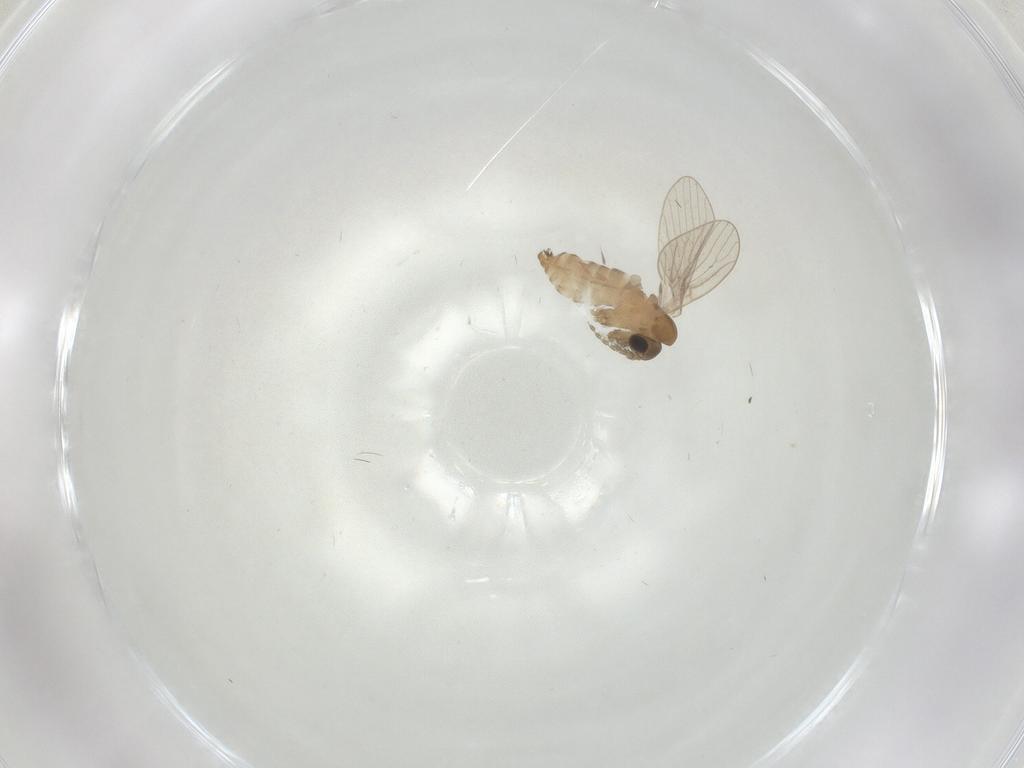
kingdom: Animalia
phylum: Arthropoda
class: Insecta
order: Diptera
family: Psychodidae
